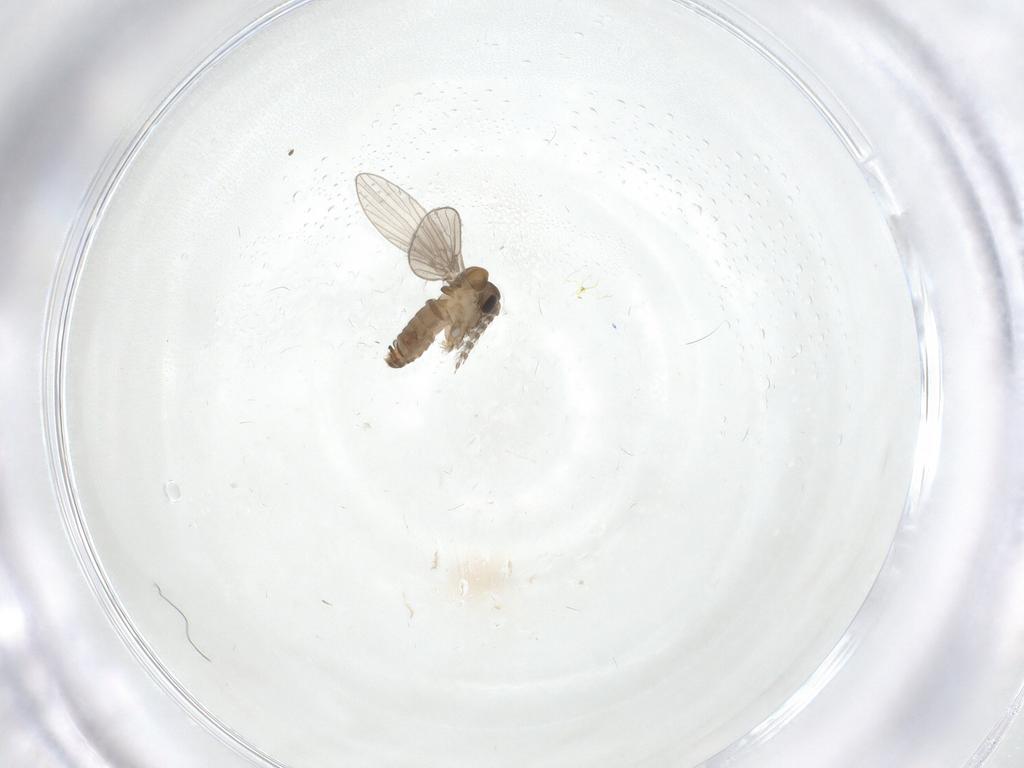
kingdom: Animalia
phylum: Arthropoda
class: Insecta
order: Diptera
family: Psychodidae
